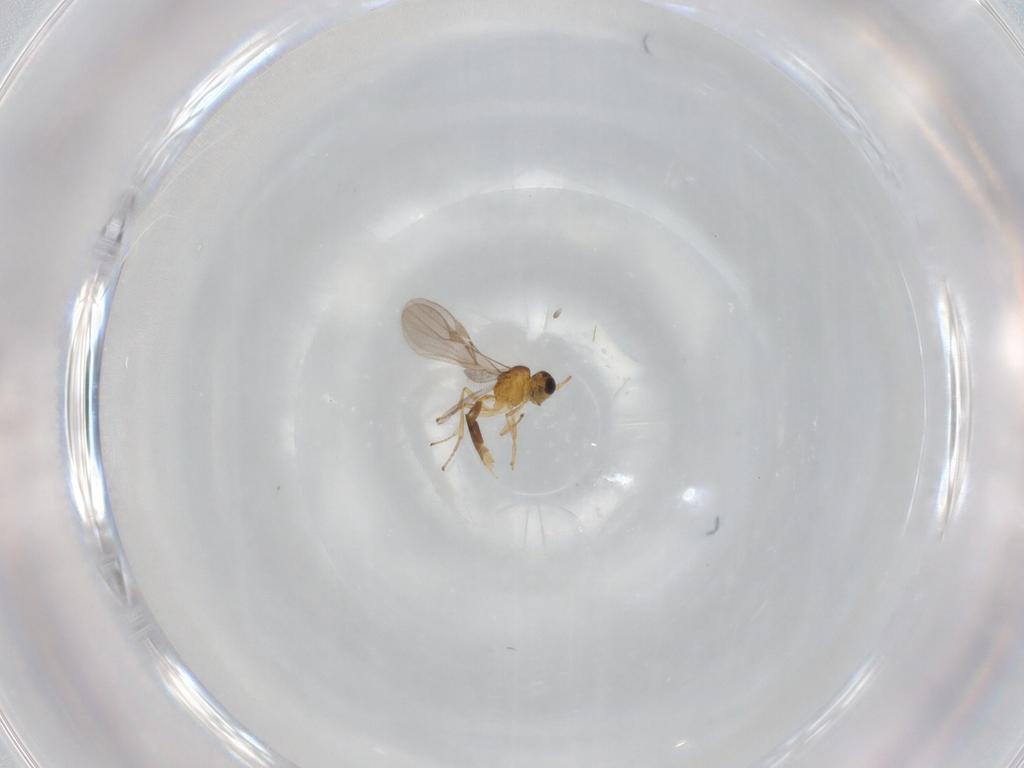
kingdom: Animalia
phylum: Arthropoda
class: Insecta
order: Hymenoptera
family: Braconidae
